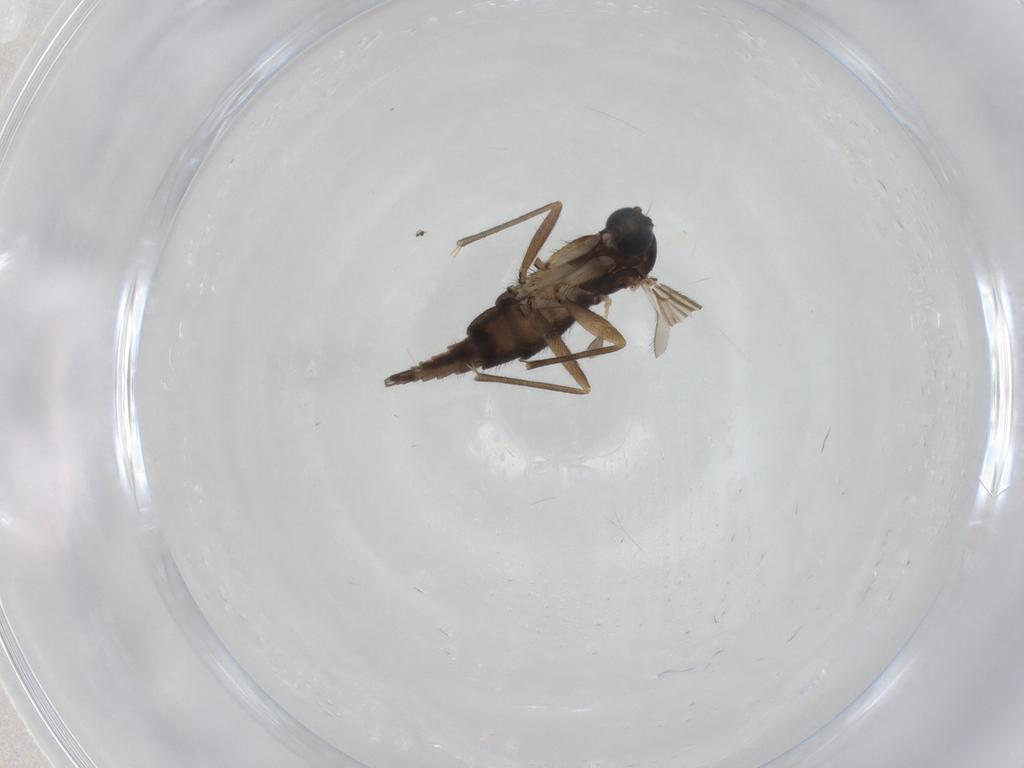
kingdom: Animalia
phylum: Arthropoda
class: Insecta
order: Diptera
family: Sciaridae
